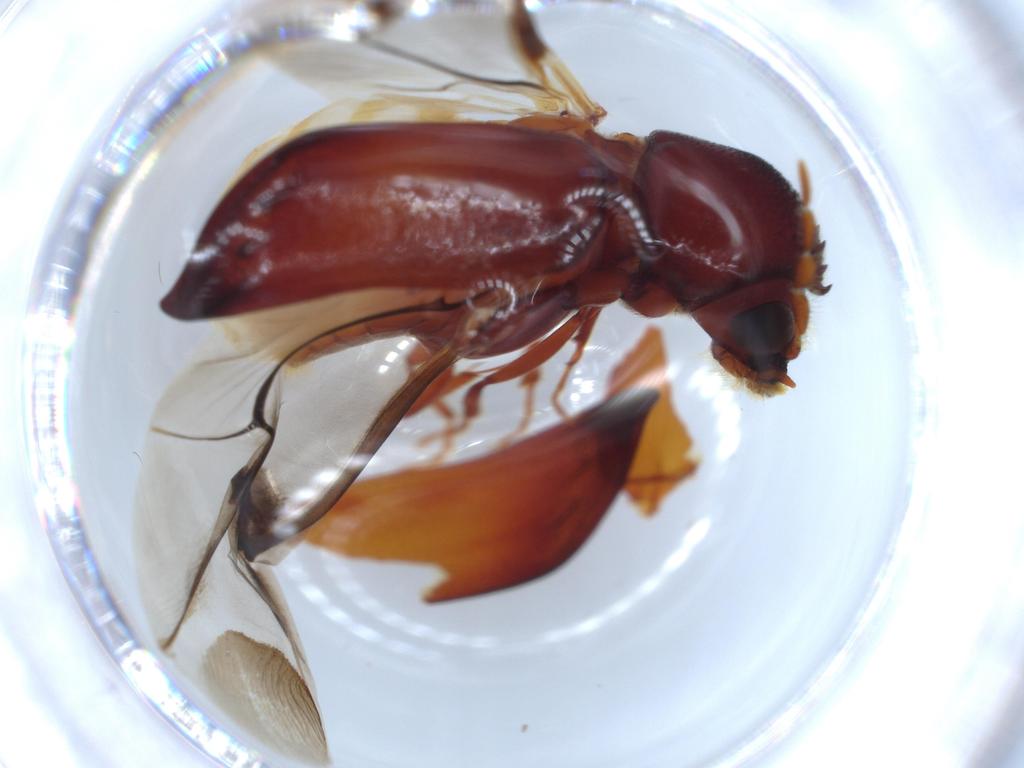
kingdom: Animalia
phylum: Arthropoda
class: Insecta
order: Coleoptera
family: Bostrichidae
